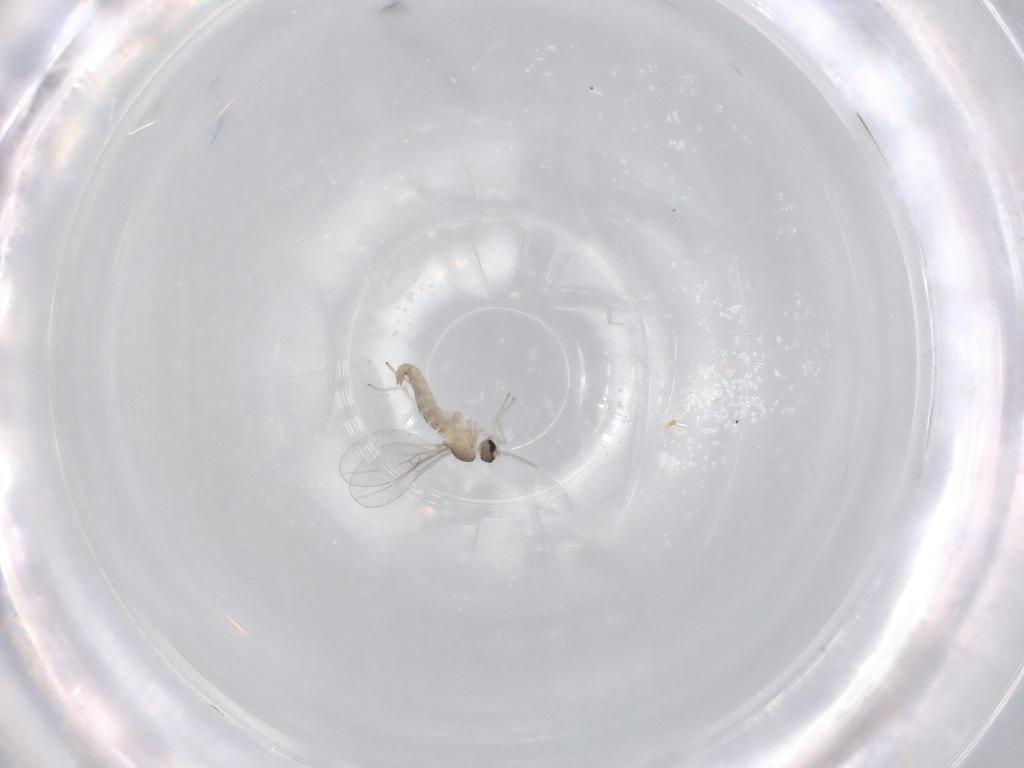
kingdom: Animalia
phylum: Arthropoda
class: Insecta
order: Diptera
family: Cecidomyiidae
